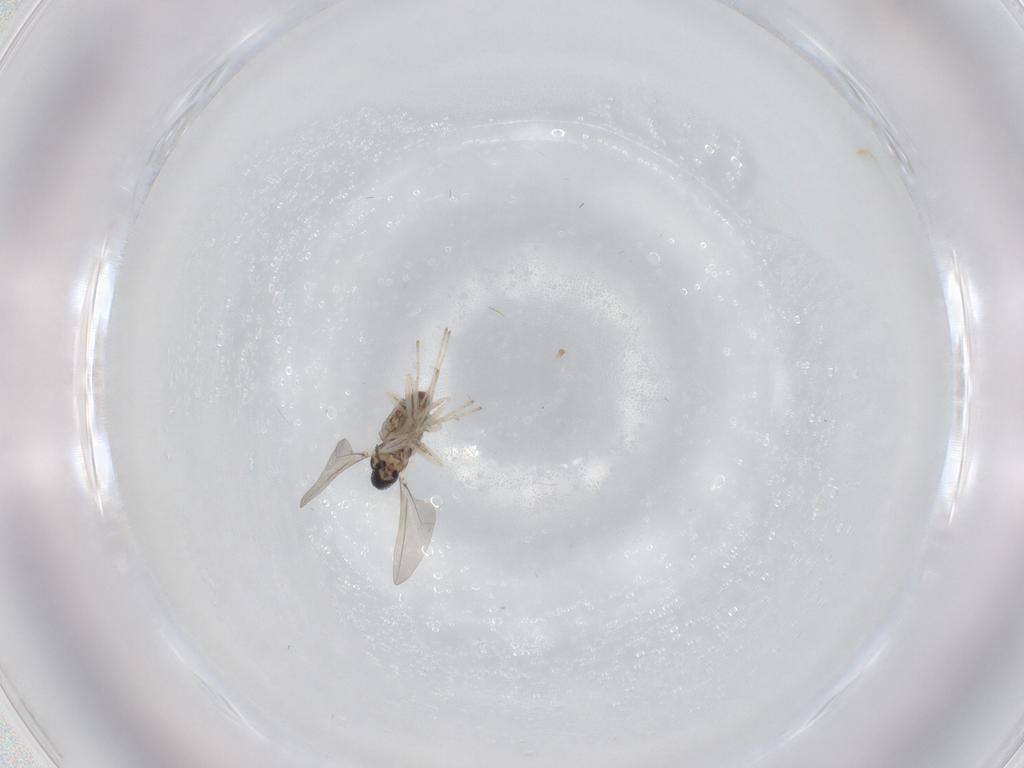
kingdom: Animalia
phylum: Arthropoda
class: Insecta
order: Diptera
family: Cecidomyiidae
